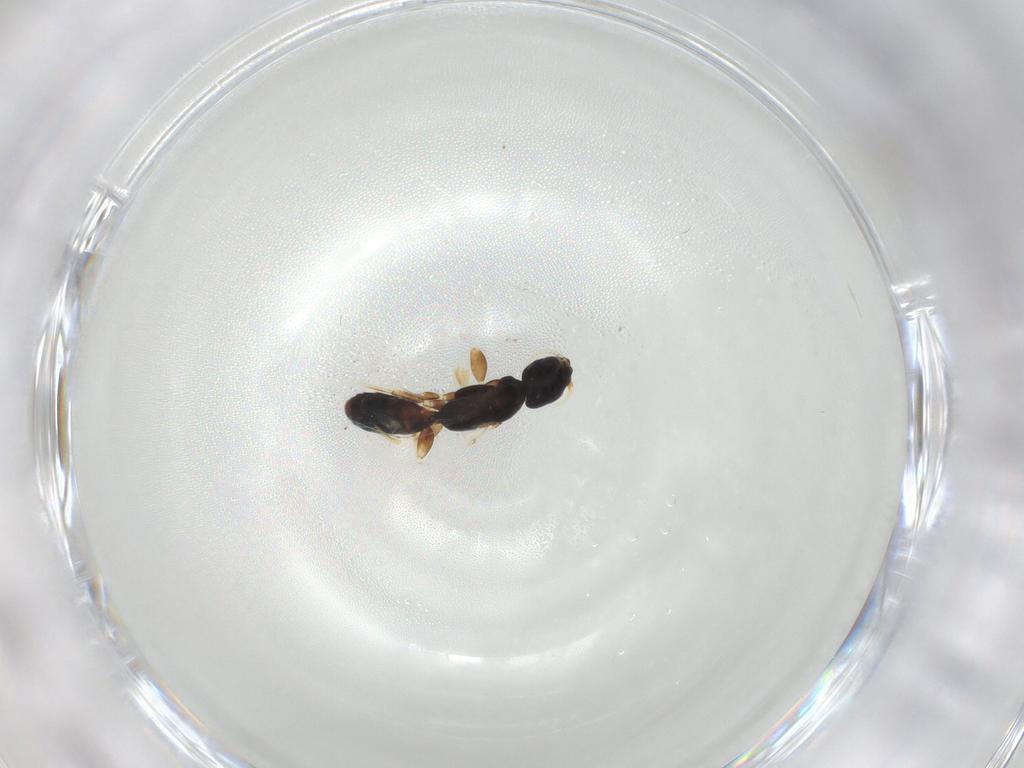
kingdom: Animalia
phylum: Arthropoda
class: Insecta
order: Hymenoptera
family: Bethylidae
